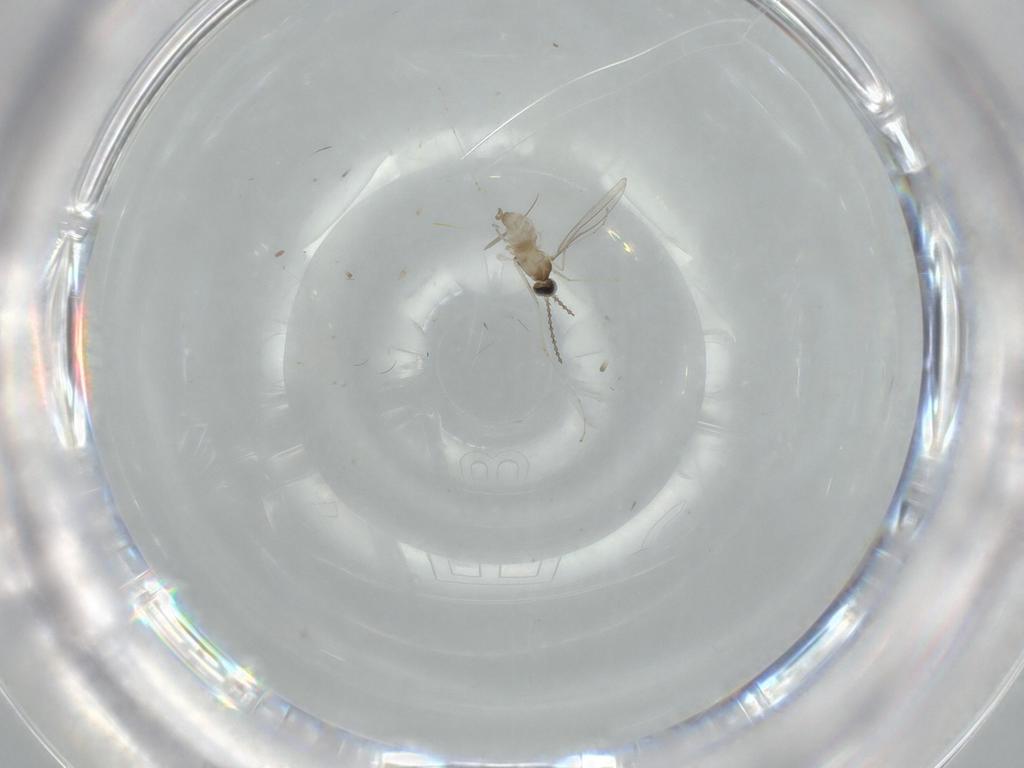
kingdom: Animalia
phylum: Arthropoda
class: Insecta
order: Diptera
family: Cecidomyiidae
